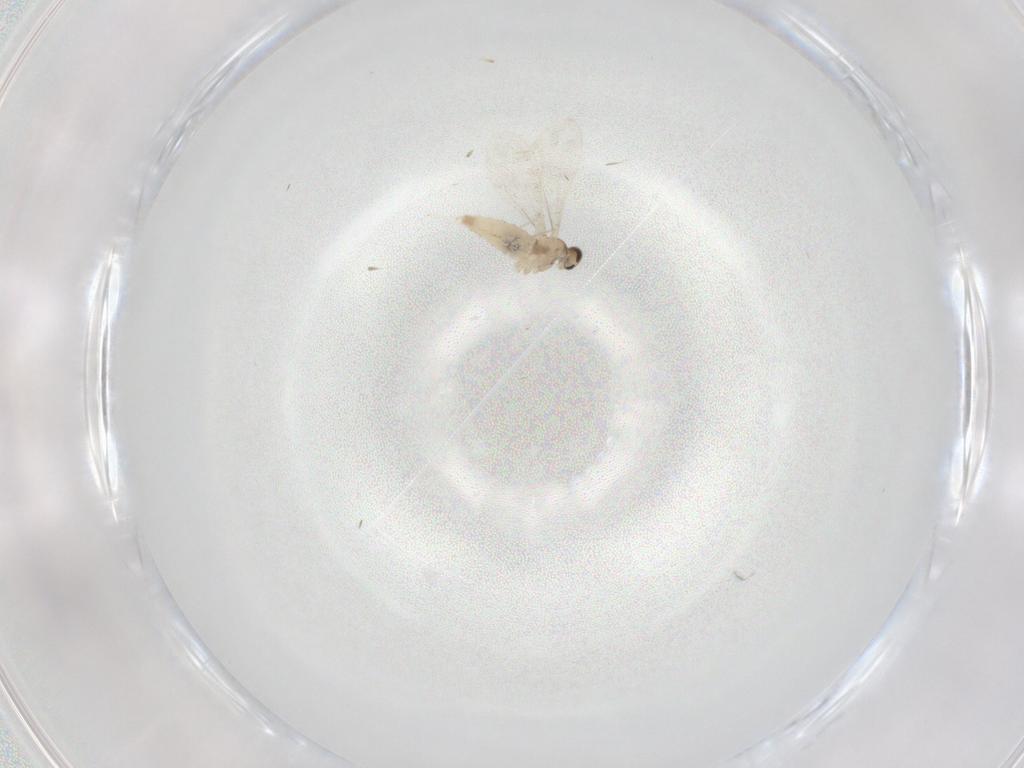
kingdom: Animalia
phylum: Arthropoda
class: Insecta
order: Diptera
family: Cecidomyiidae
